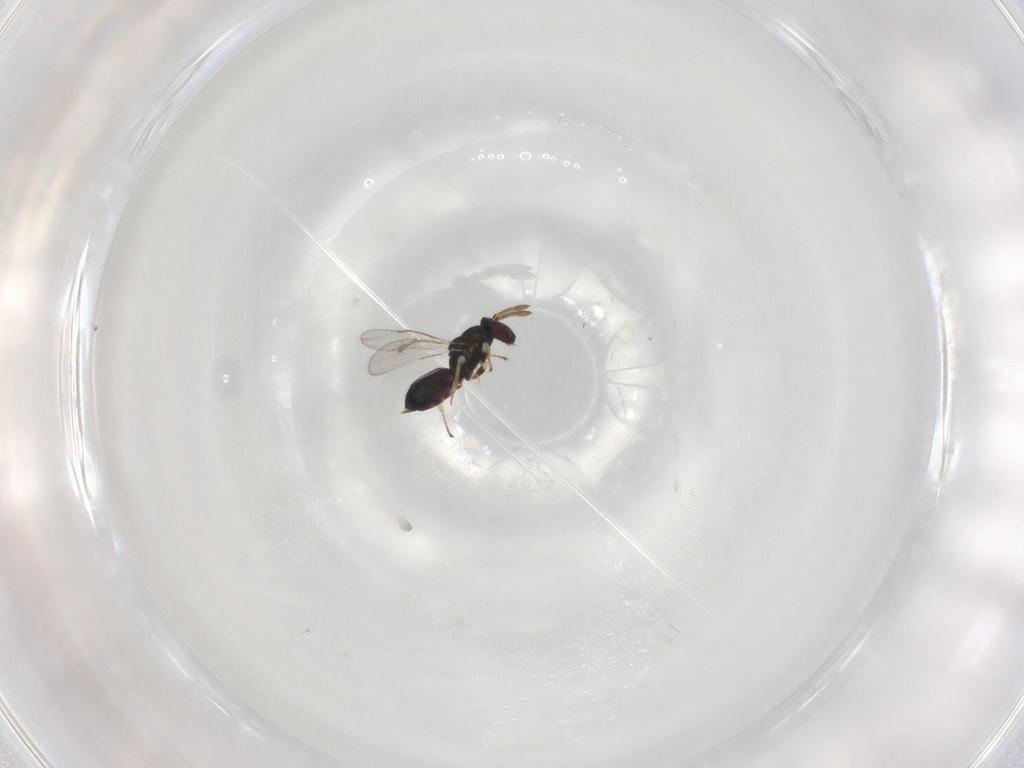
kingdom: Animalia
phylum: Arthropoda
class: Insecta
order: Hymenoptera
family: Eulophidae
